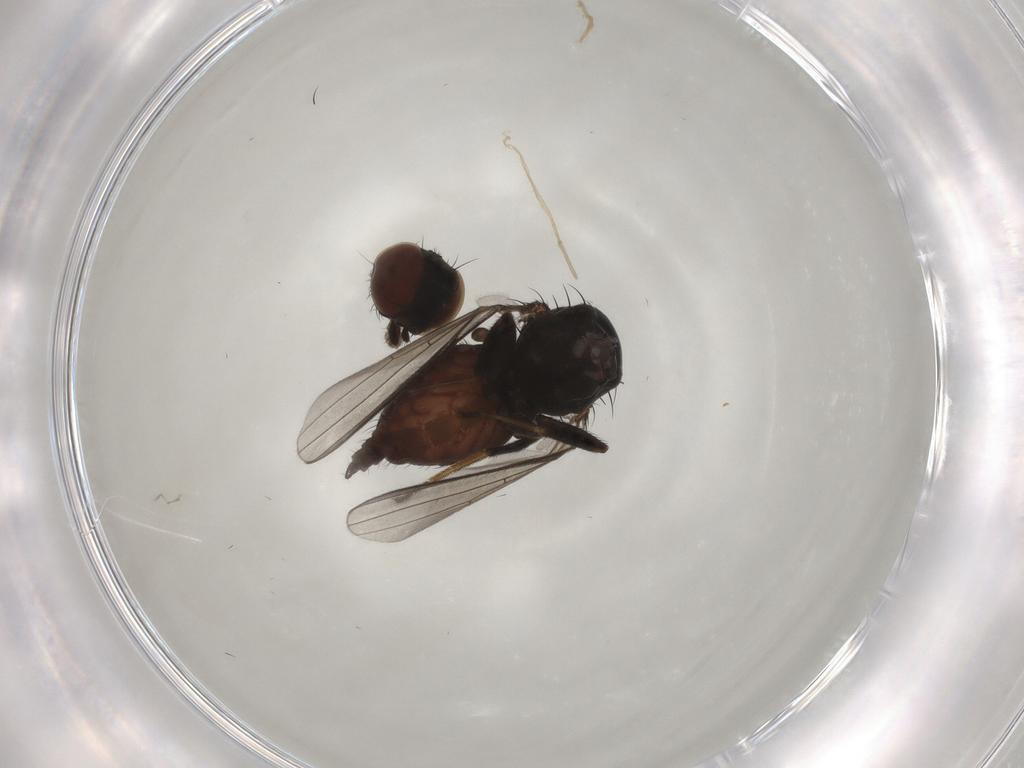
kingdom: Animalia
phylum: Arthropoda
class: Insecta
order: Diptera
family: Milichiidae
